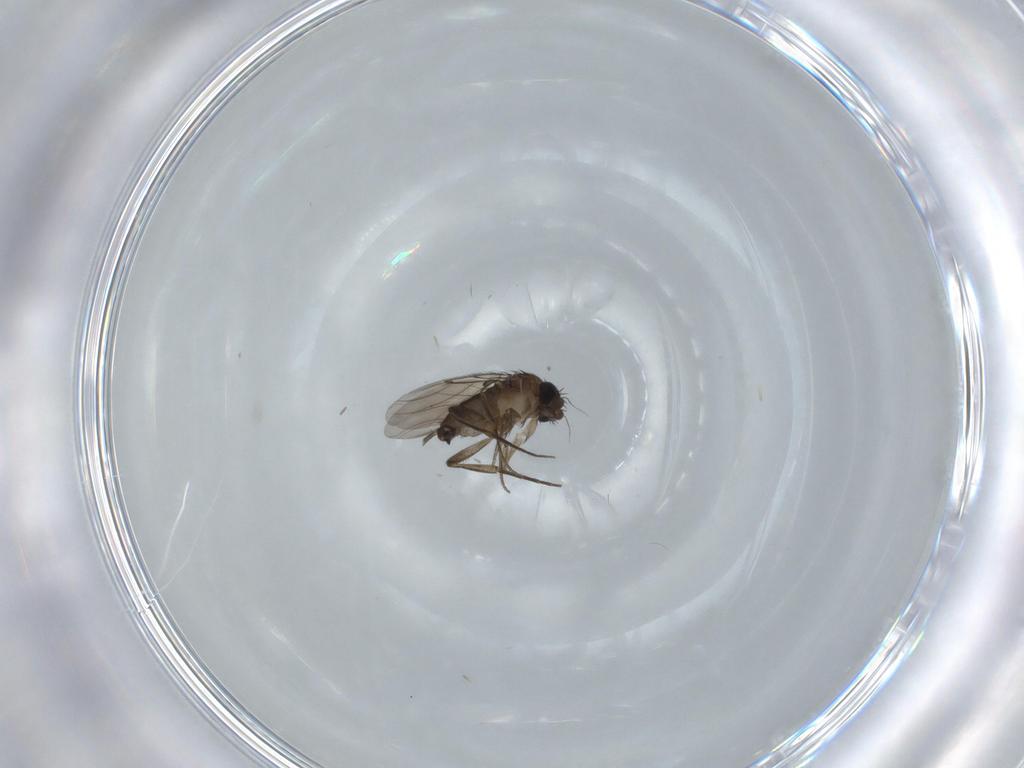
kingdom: Animalia
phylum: Arthropoda
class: Insecta
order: Diptera
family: Phoridae
